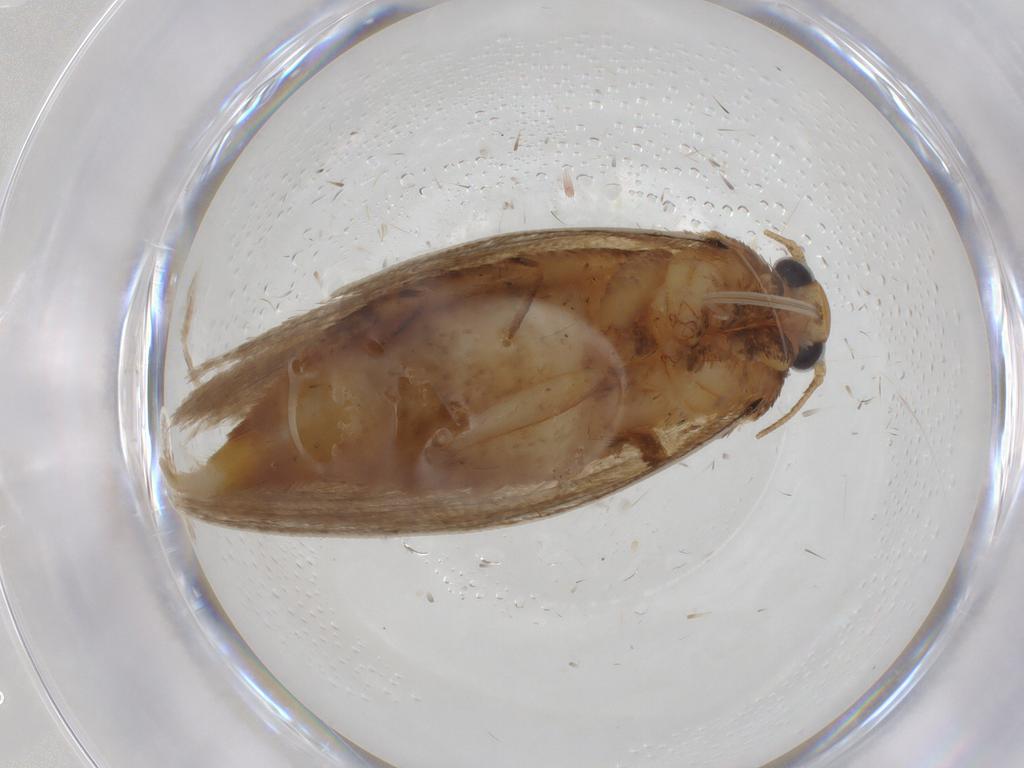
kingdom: Animalia
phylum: Arthropoda
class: Insecta
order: Lepidoptera
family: Oecophoridae
